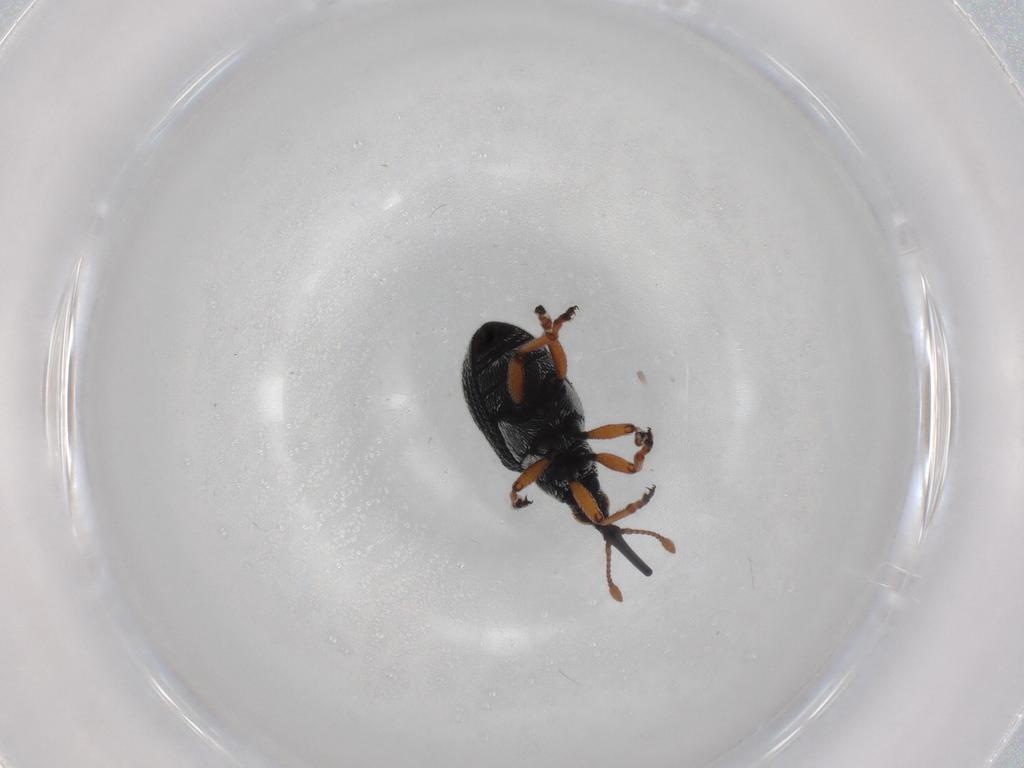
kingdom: Animalia
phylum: Arthropoda
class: Insecta
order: Coleoptera
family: Brentidae
